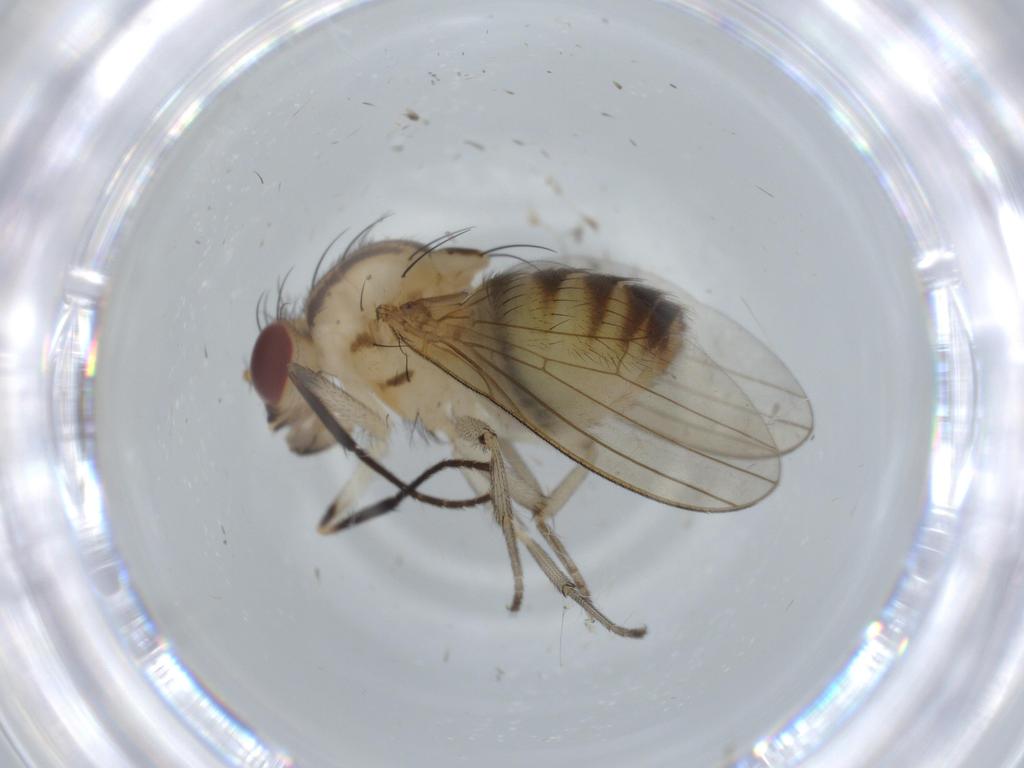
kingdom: Animalia
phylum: Arthropoda
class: Insecta
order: Diptera
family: Cecidomyiidae
